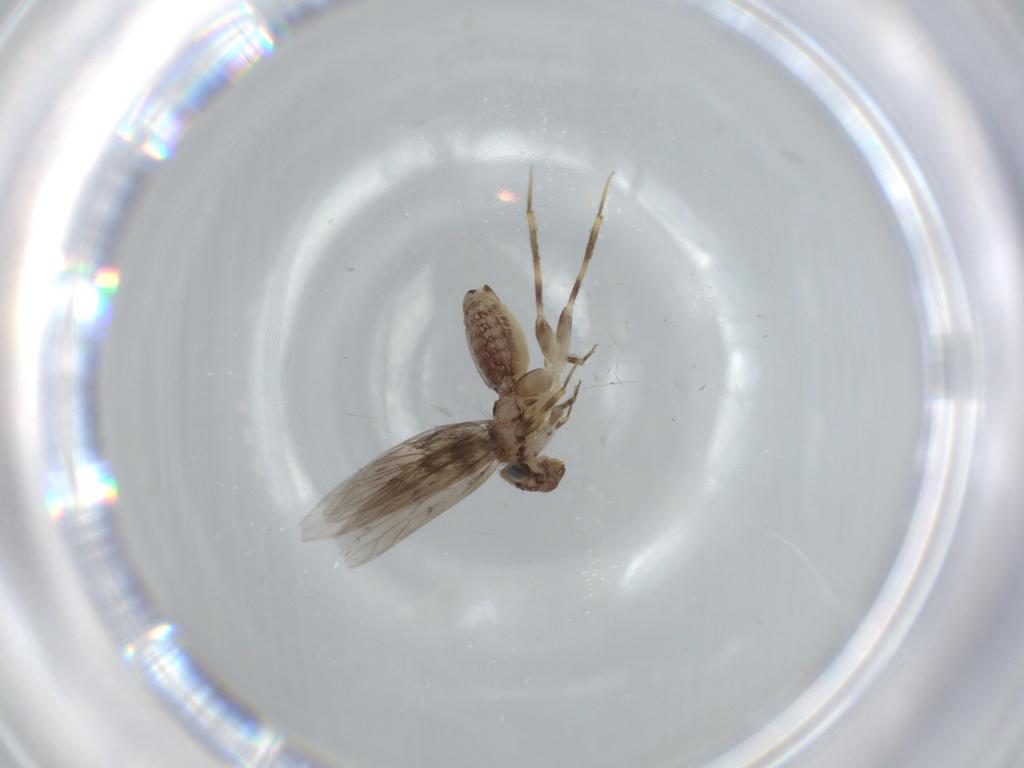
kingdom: Animalia
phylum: Arthropoda
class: Insecta
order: Psocodea
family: Lepidopsocidae
